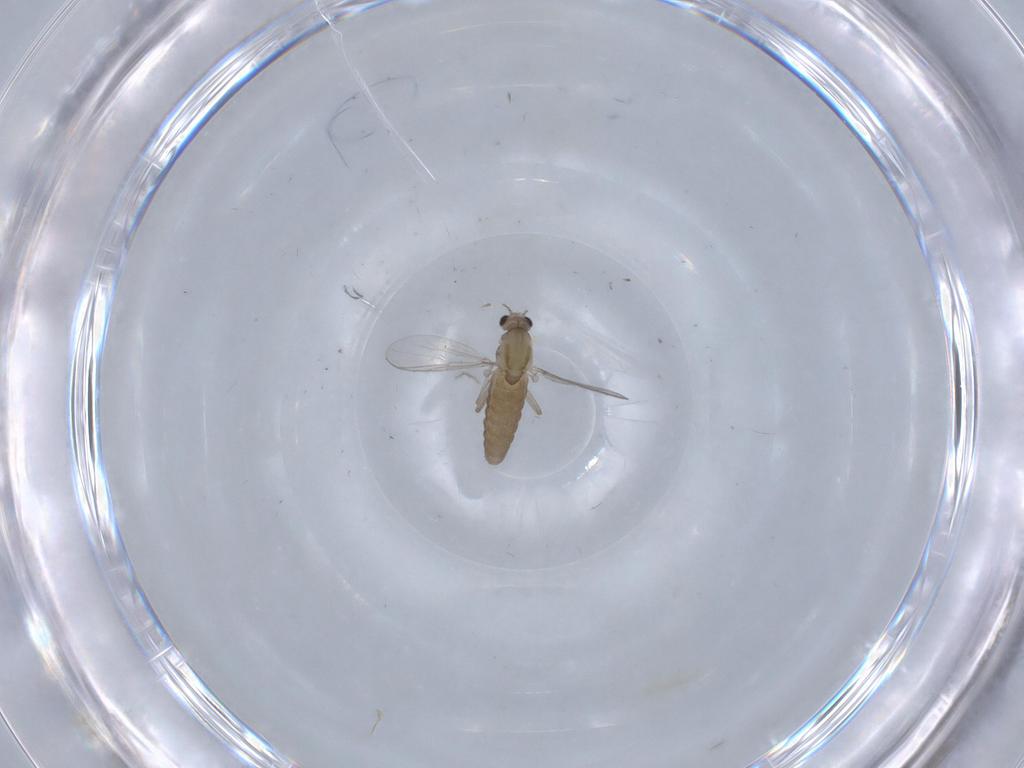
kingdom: Animalia
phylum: Arthropoda
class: Insecta
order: Diptera
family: Chironomidae
